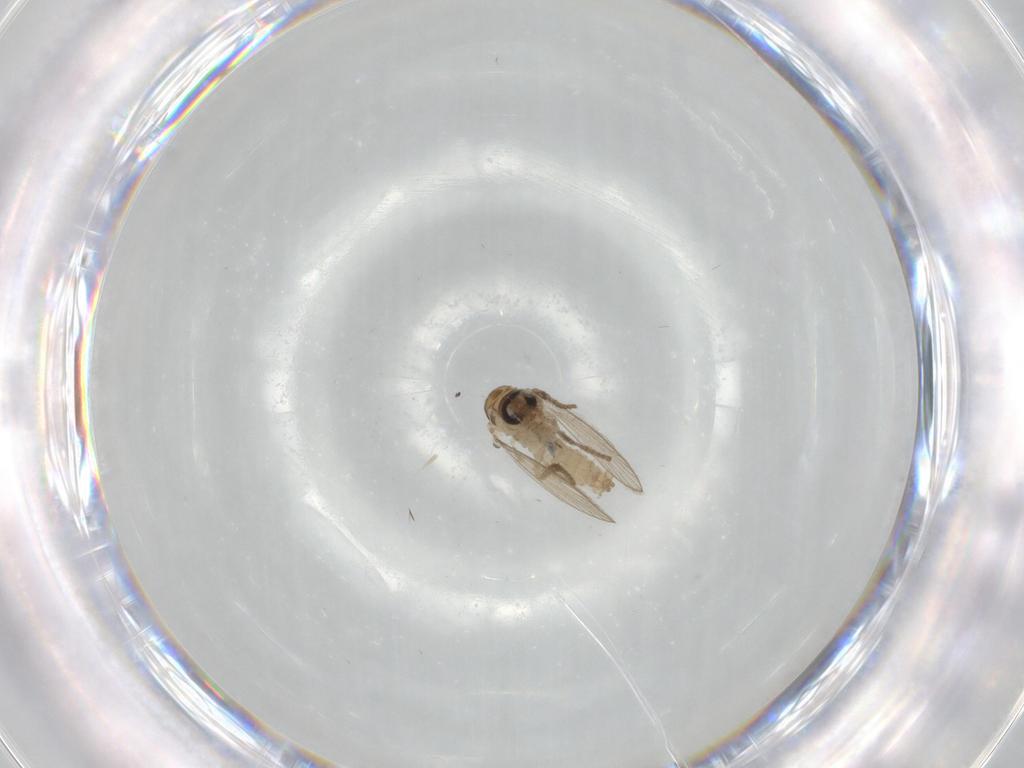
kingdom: Animalia
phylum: Arthropoda
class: Insecta
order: Diptera
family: Psychodidae
